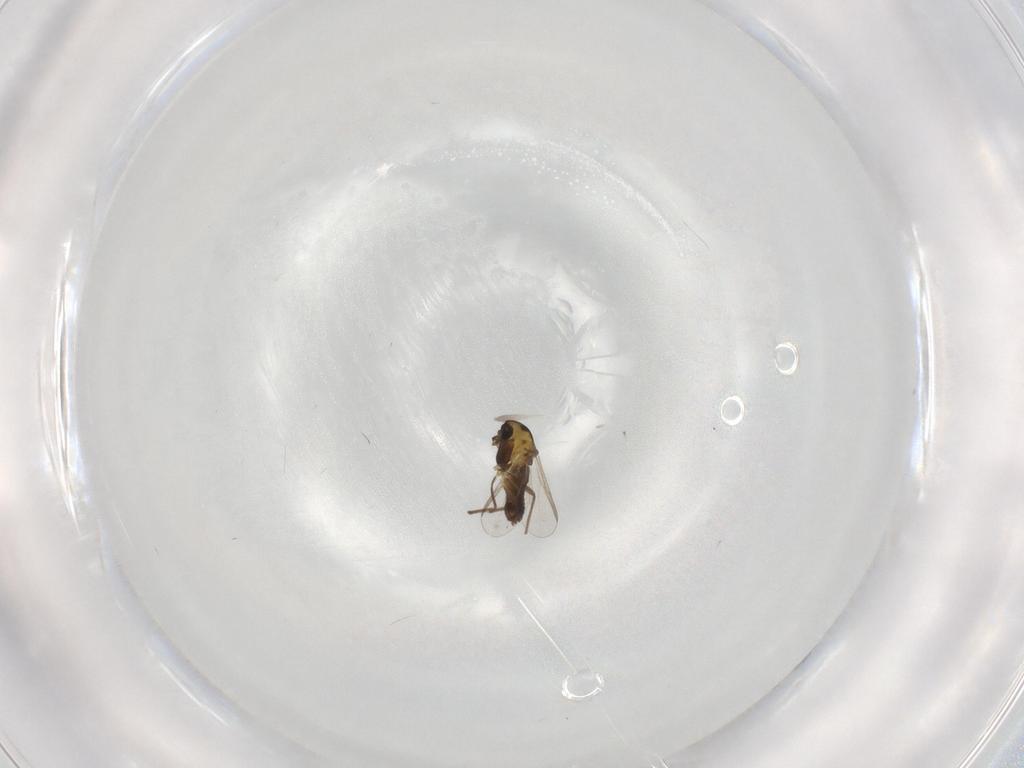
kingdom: Animalia
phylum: Arthropoda
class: Insecta
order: Diptera
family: Chironomidae
